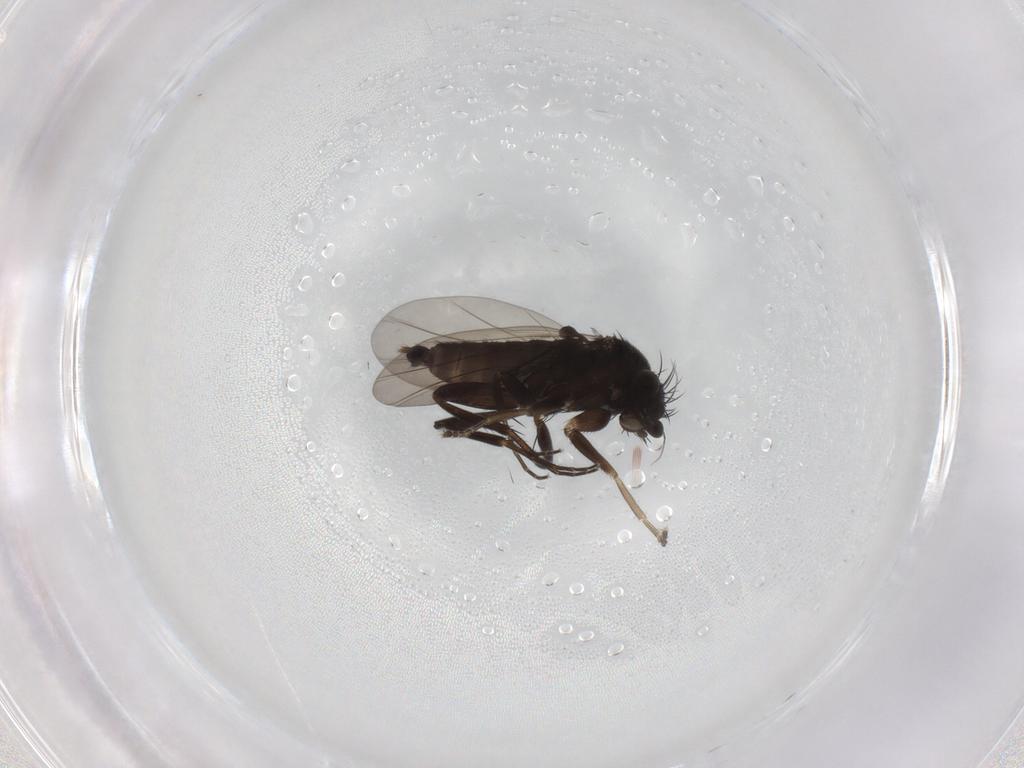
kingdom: Animalia
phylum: Arthropoda
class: Insecta
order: Diptera
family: Phoridae
